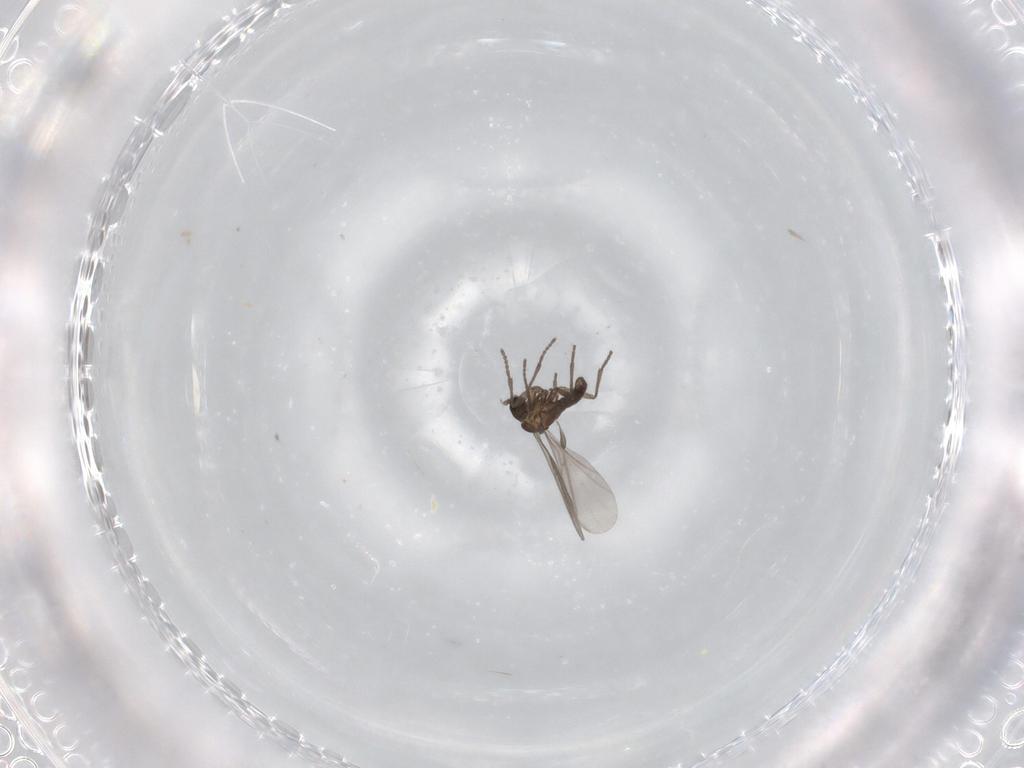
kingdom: Animalia
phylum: Arthropoda
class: Insecta
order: Diptera
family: Chironomidae
